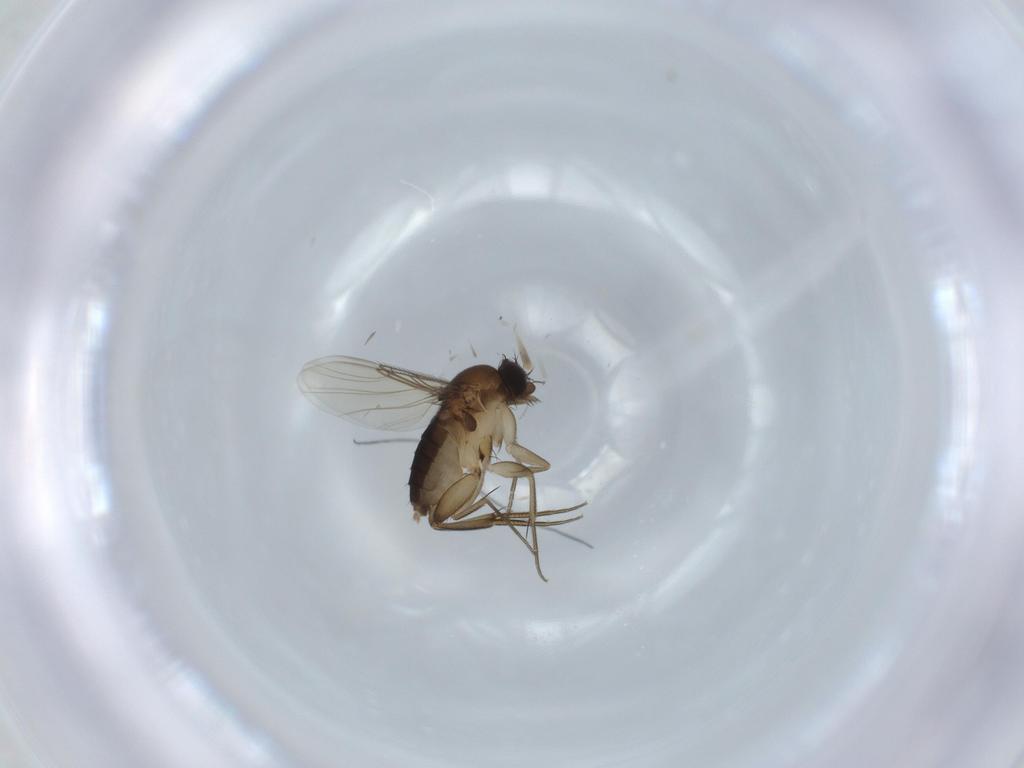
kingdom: Animalia
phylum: Arthropoda
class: Insecta
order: Diptera
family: Phoridae
